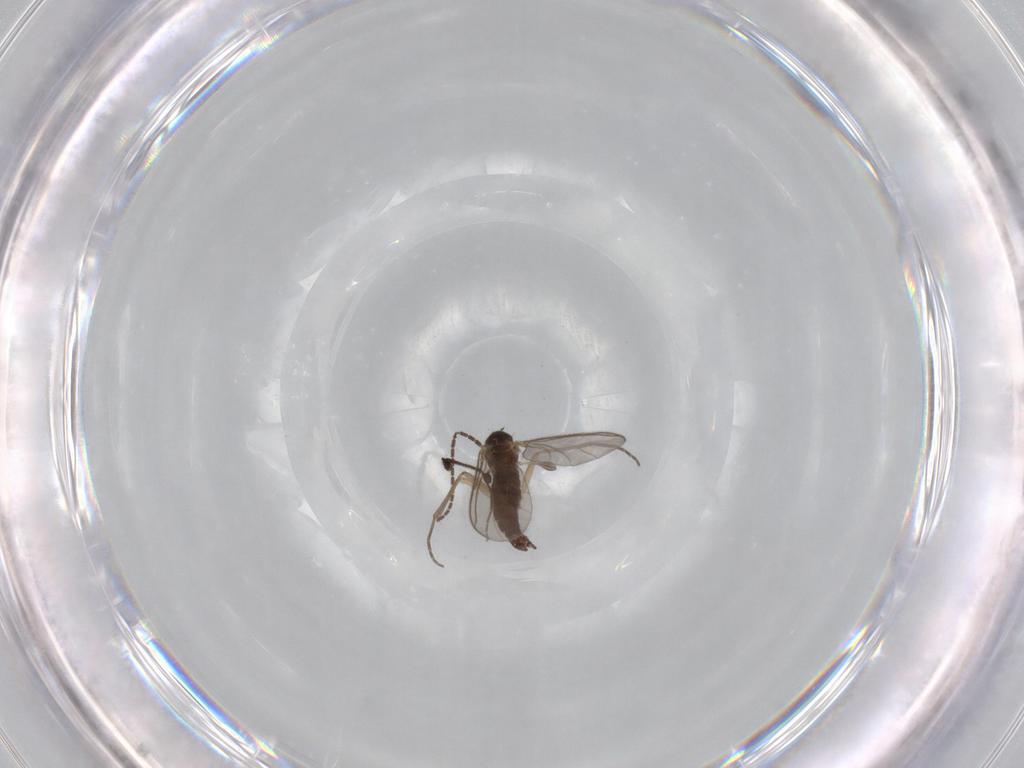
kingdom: Animalia
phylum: Arthropoda
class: Insecta
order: Diptera
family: Sciaridae
